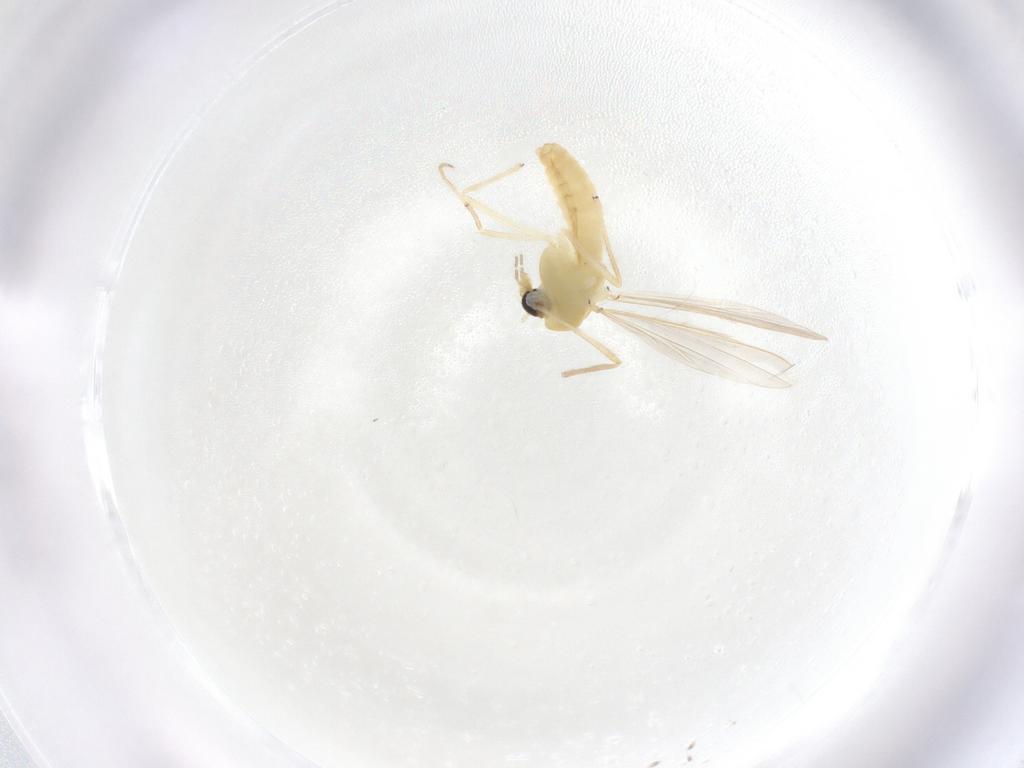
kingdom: Animalia
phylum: Arthropoda
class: Insecta
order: Diptera
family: Chironomidae
